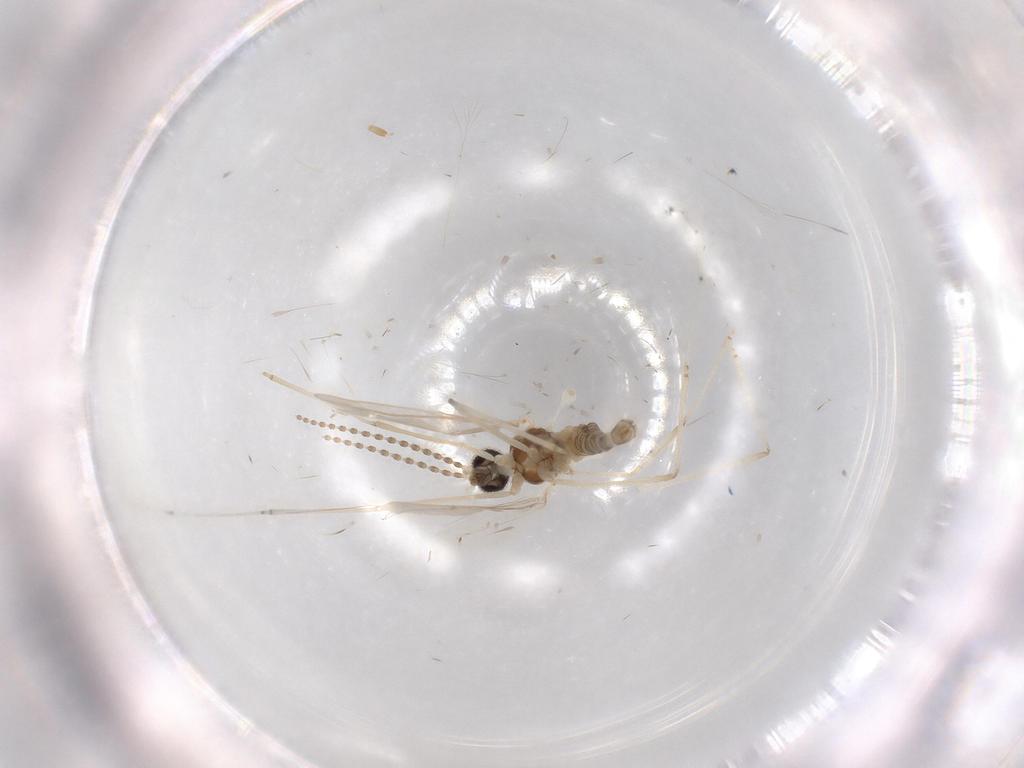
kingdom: Animalia
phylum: Arthropoda
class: Insecta
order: Diptera
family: Cecidomyiidae
